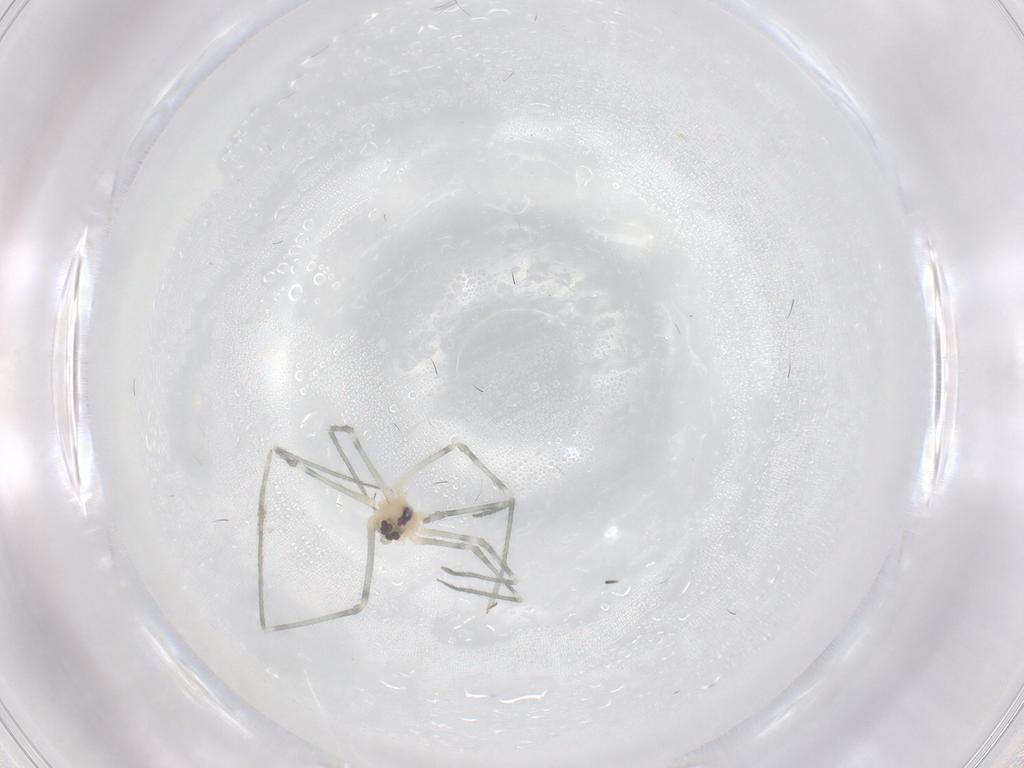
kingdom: Animalia
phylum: Arthropoda
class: Arachnida
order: Araneae
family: Pholcidae
